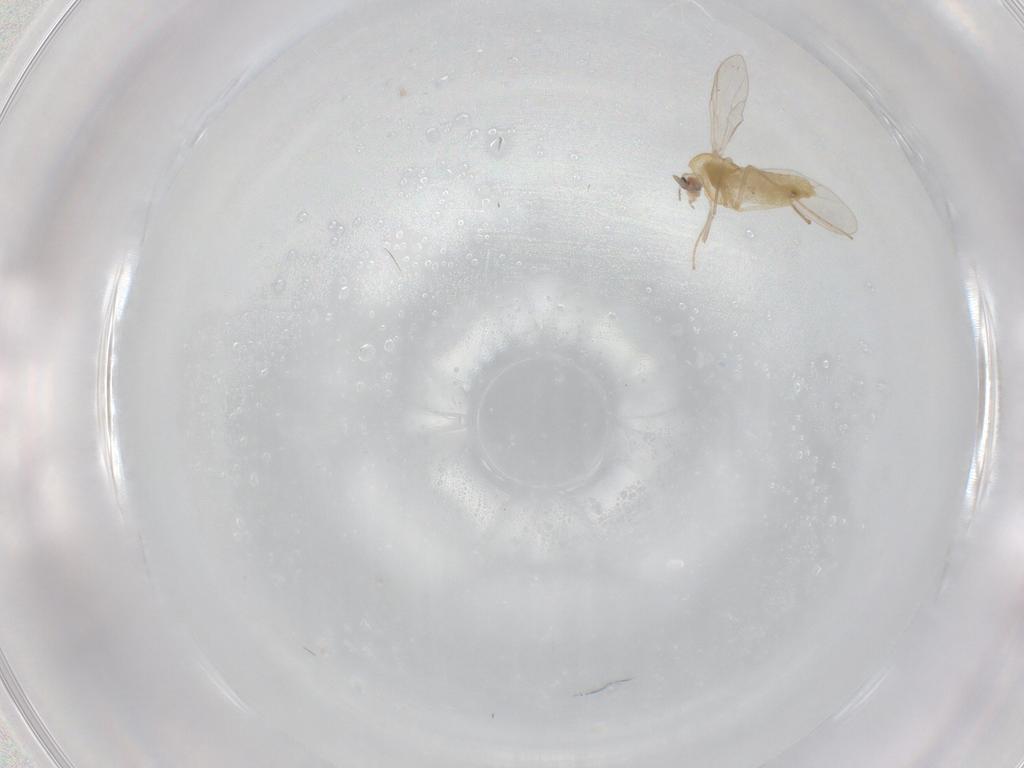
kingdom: Animalia
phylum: Arthropoda
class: Insecta
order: Diptera
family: Chironomidae
